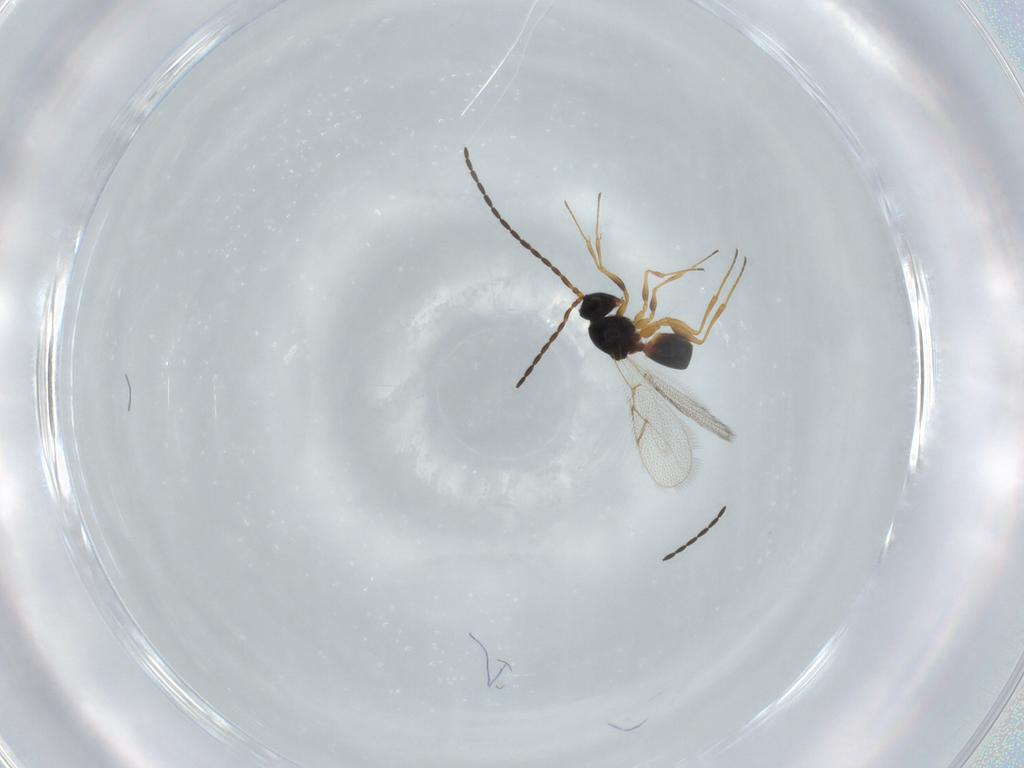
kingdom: Animalia
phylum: Arthropoda
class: Insecta
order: Hymenoptera
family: Figitidae
